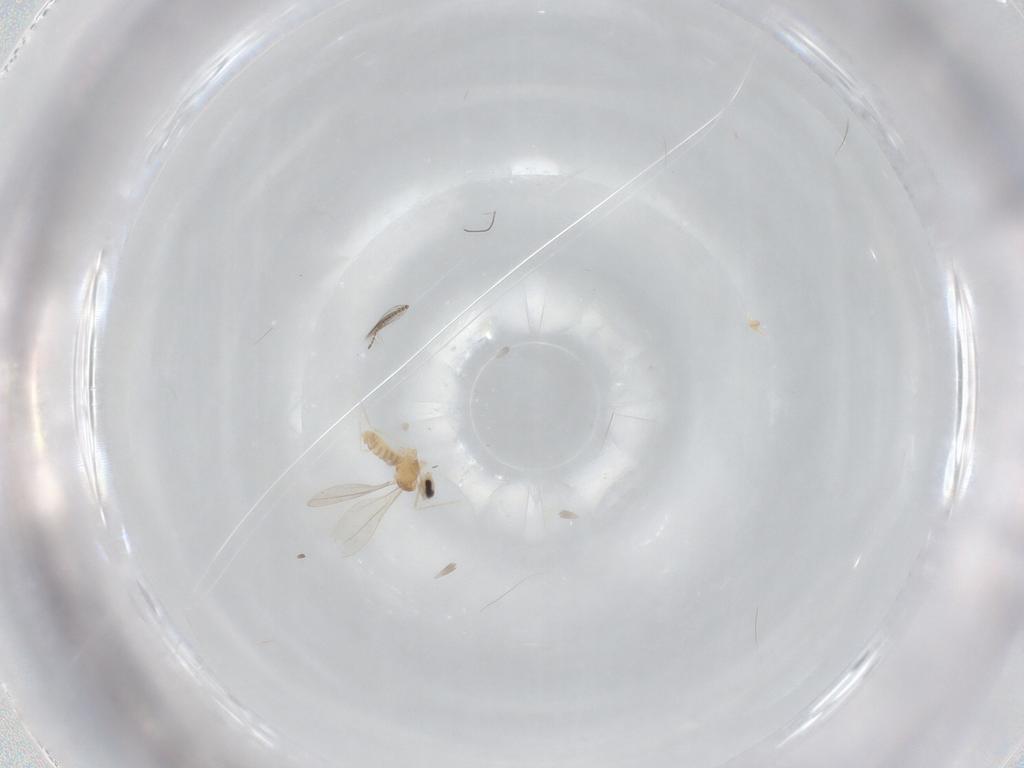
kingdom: Animalia
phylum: Arthropoda
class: Insecta
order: Diptera
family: Cecidomyiidae
